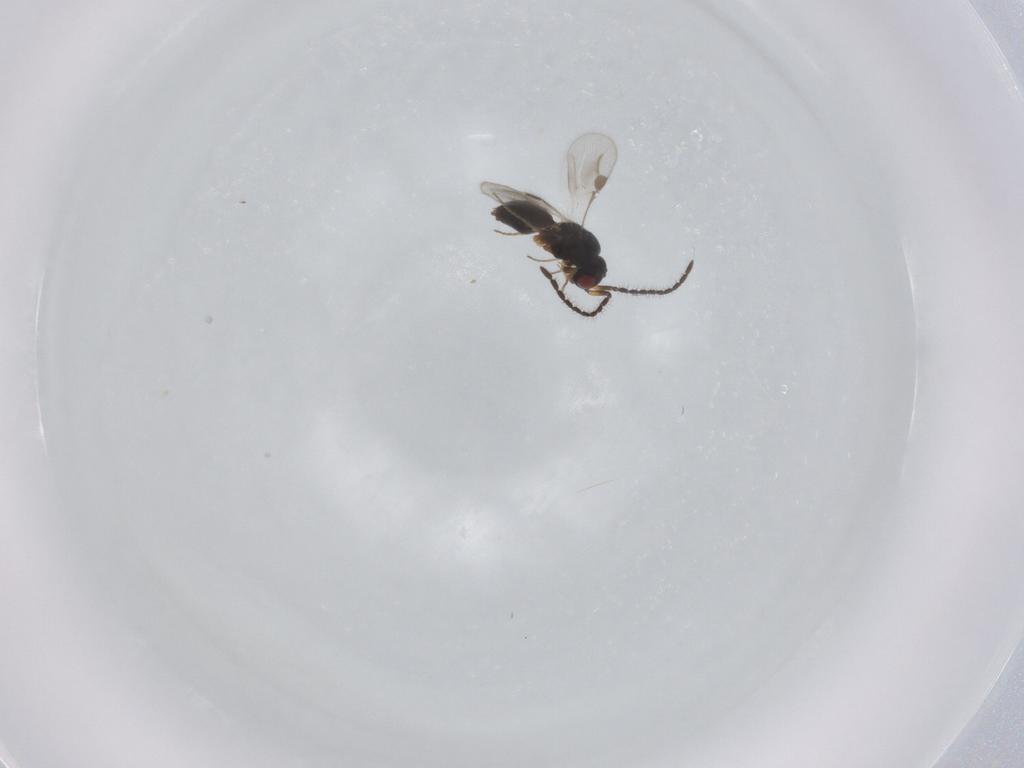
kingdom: Animalia
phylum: Arthropoda
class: Insecta
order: Hymenoptera
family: Megaspilidae
